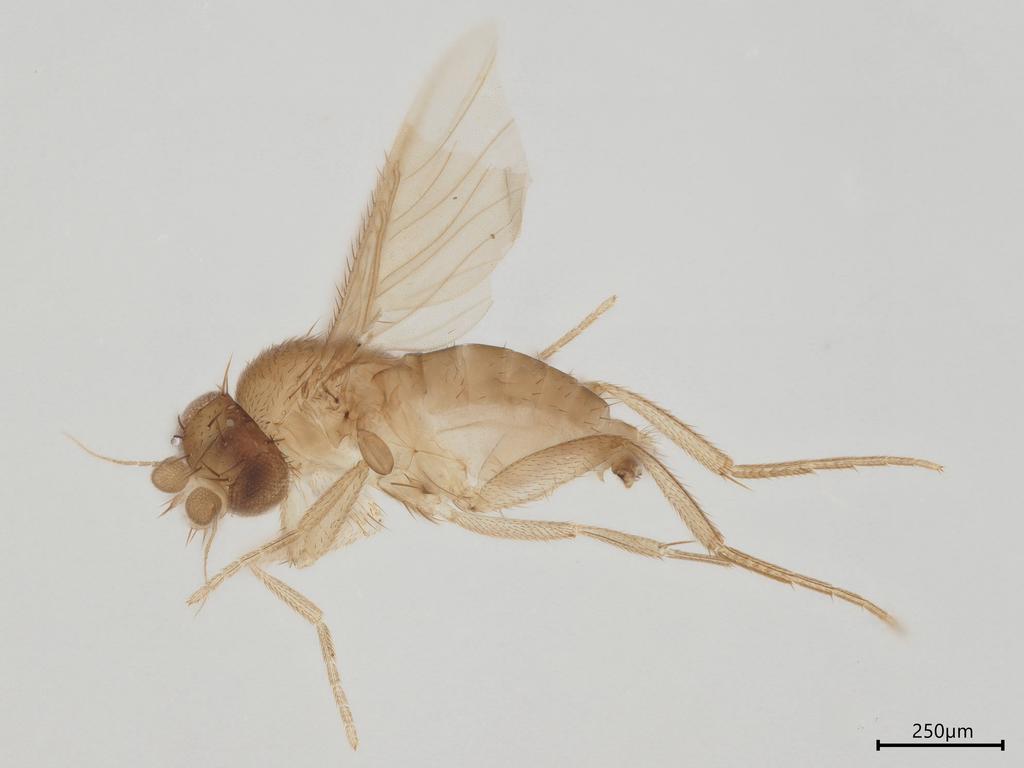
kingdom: Animalia
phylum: Arthropoda
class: Insecta
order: Diptera
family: Phoridae
